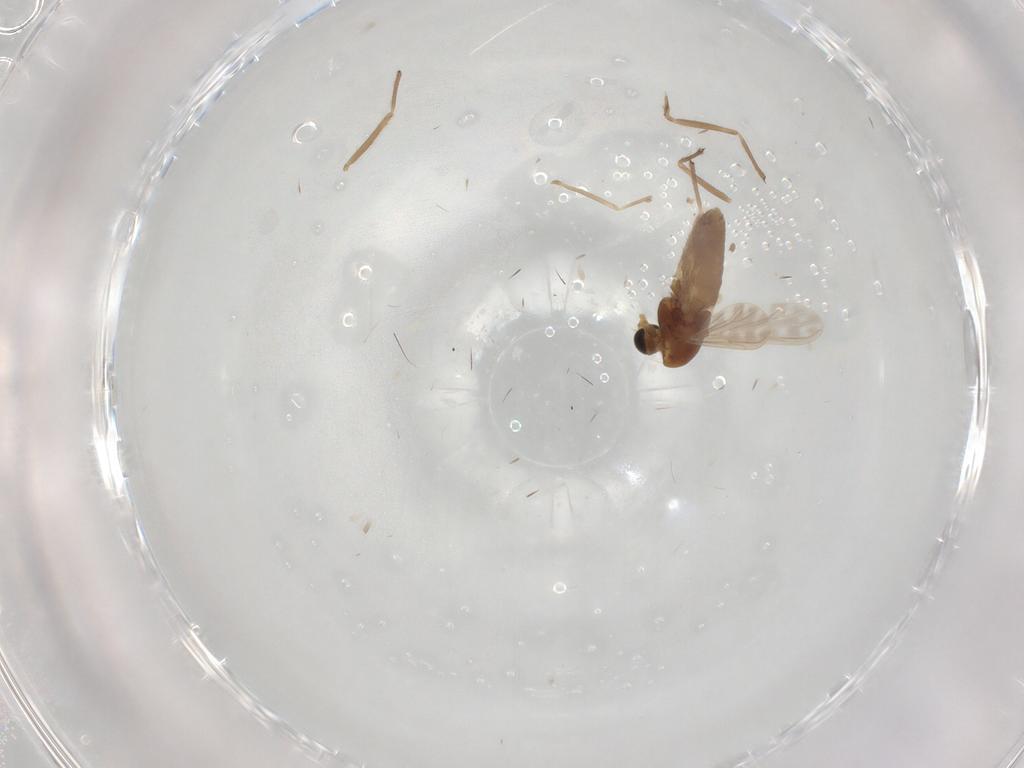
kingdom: Animalia
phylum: Arthropoda
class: Insecta
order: Diptera
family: Chironomidae
